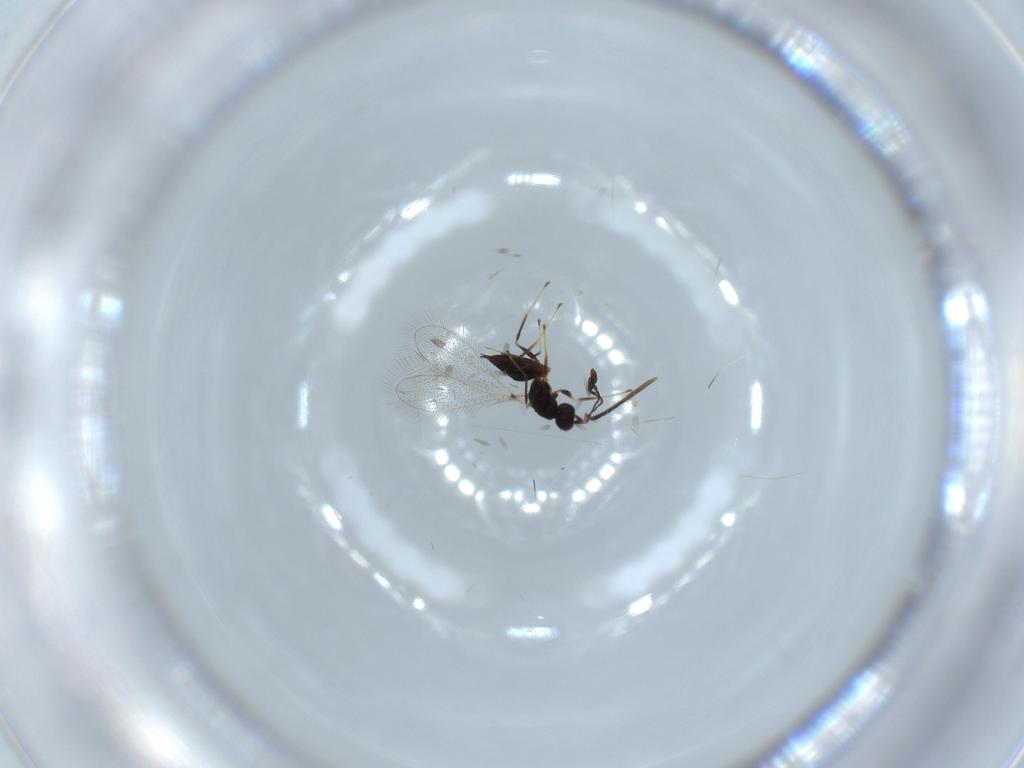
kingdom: Animalia
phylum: Arthropoda
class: Insecta
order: Hymenoptera
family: Mymaridae
